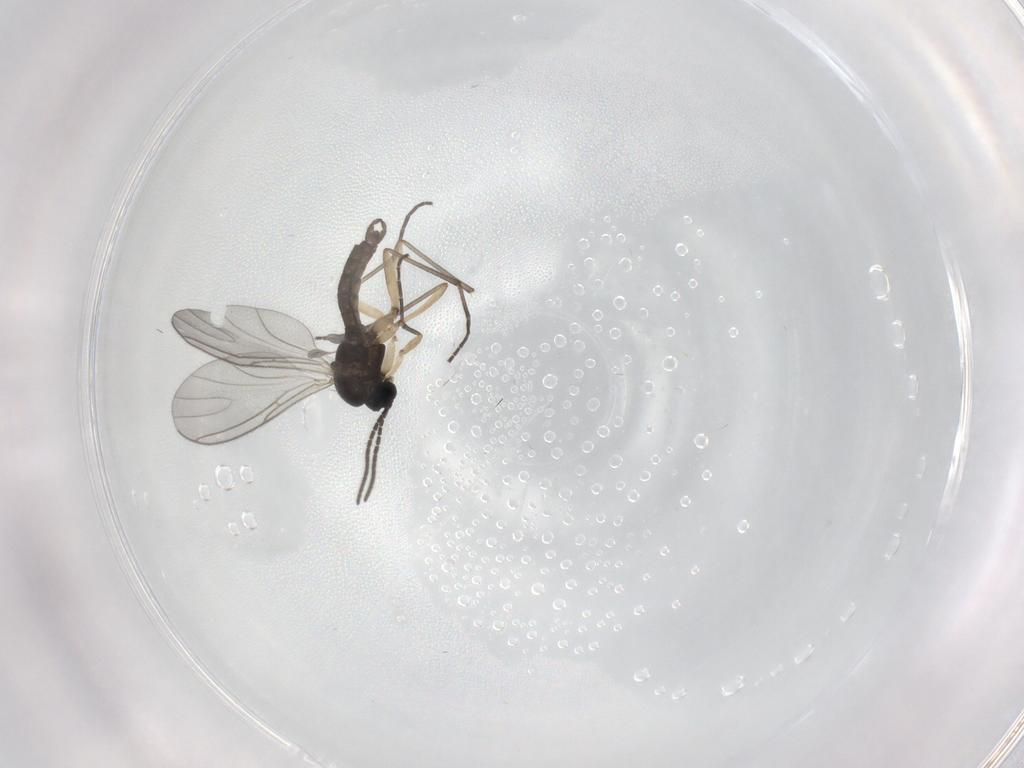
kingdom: Animalia
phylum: Arthropoda
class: Insecta
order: Diptera
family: Sciaridae
